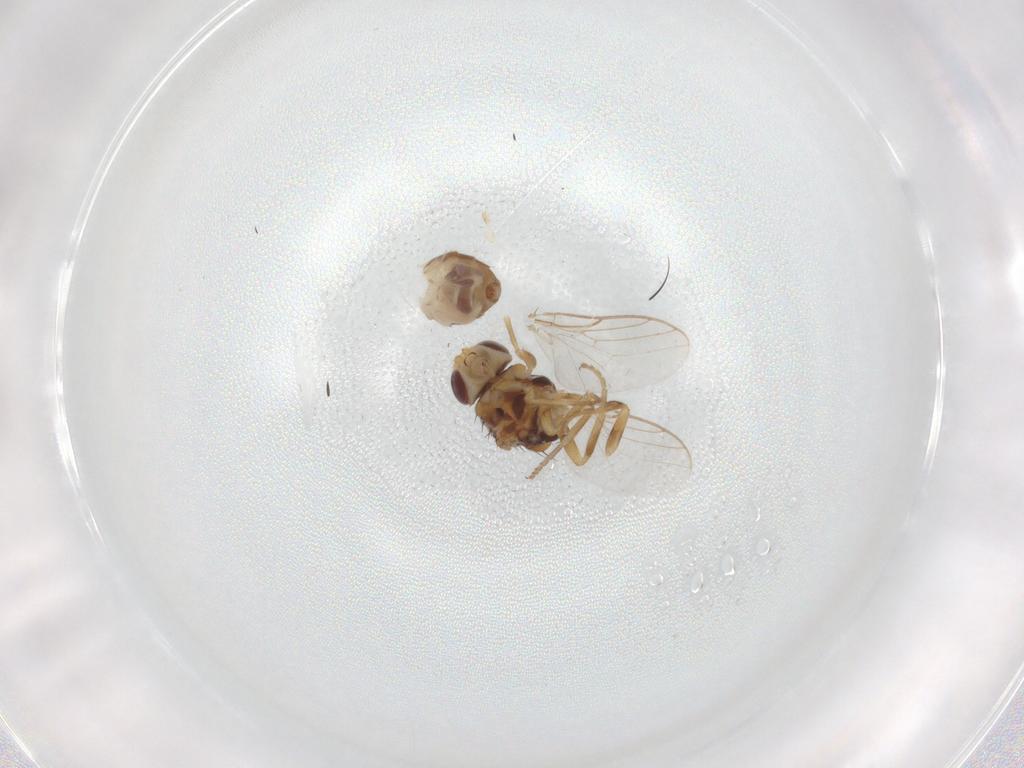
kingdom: Animalia
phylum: Arthropoda
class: Insecta
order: Diptera
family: Chloropidae
